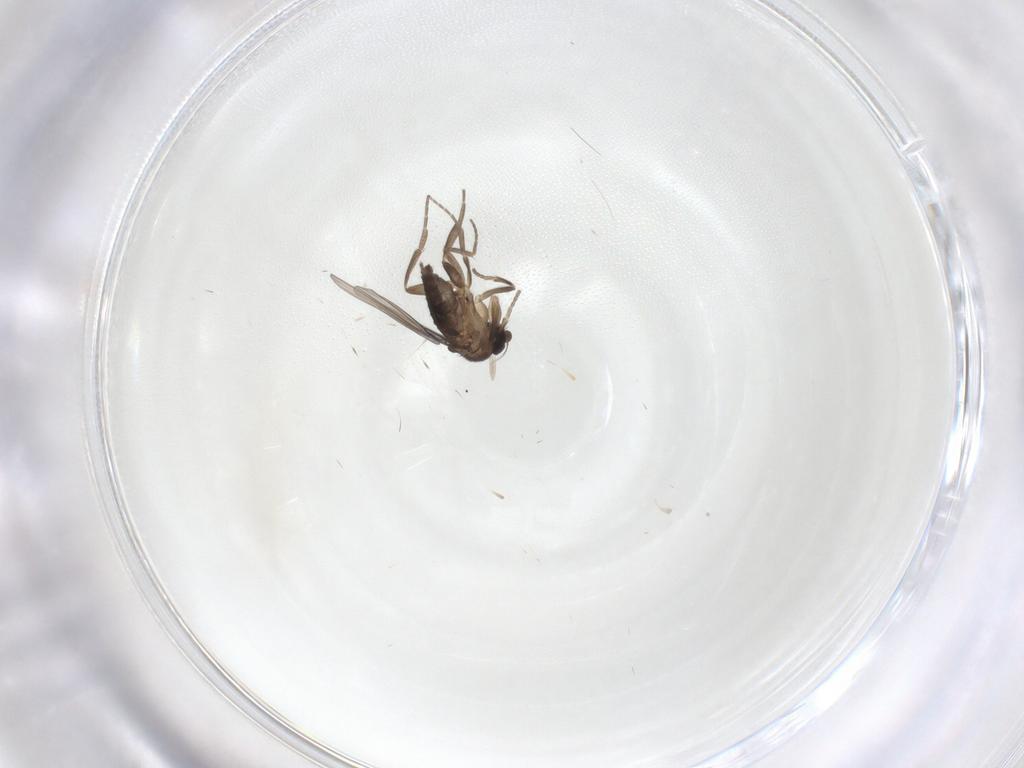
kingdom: Animalia
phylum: Arthropoda
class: Insecta
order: Diptera
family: Phoridae
